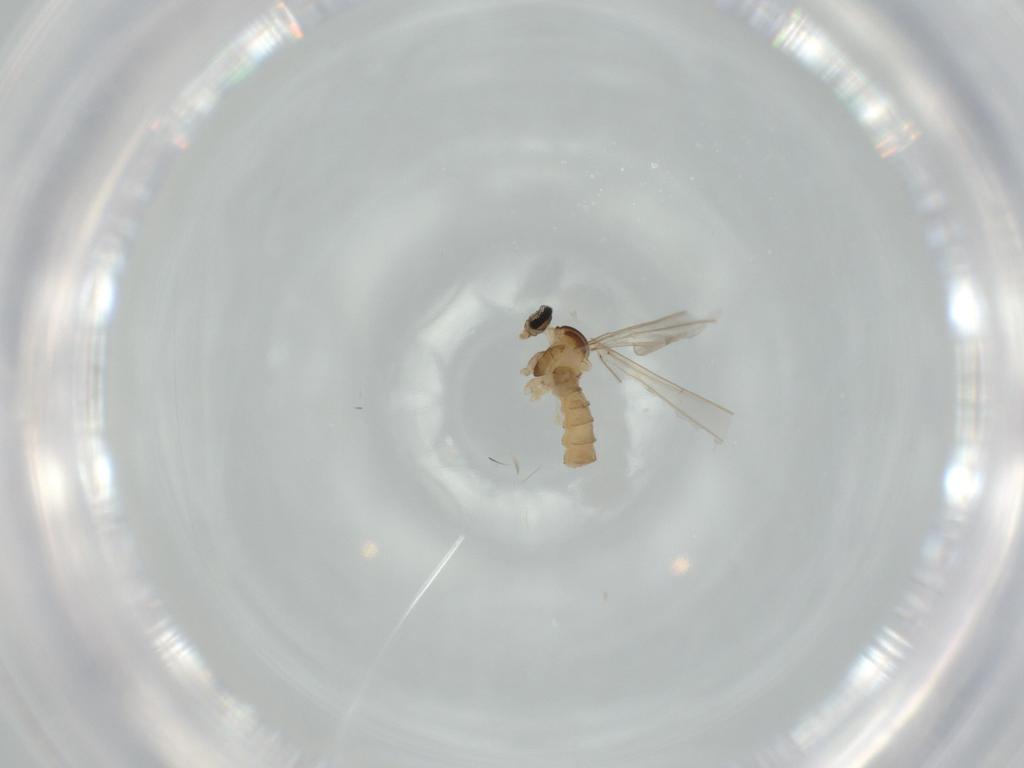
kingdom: Animalia
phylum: Arthropoda
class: Insecta
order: Diptera
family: Cecidomyiidae
